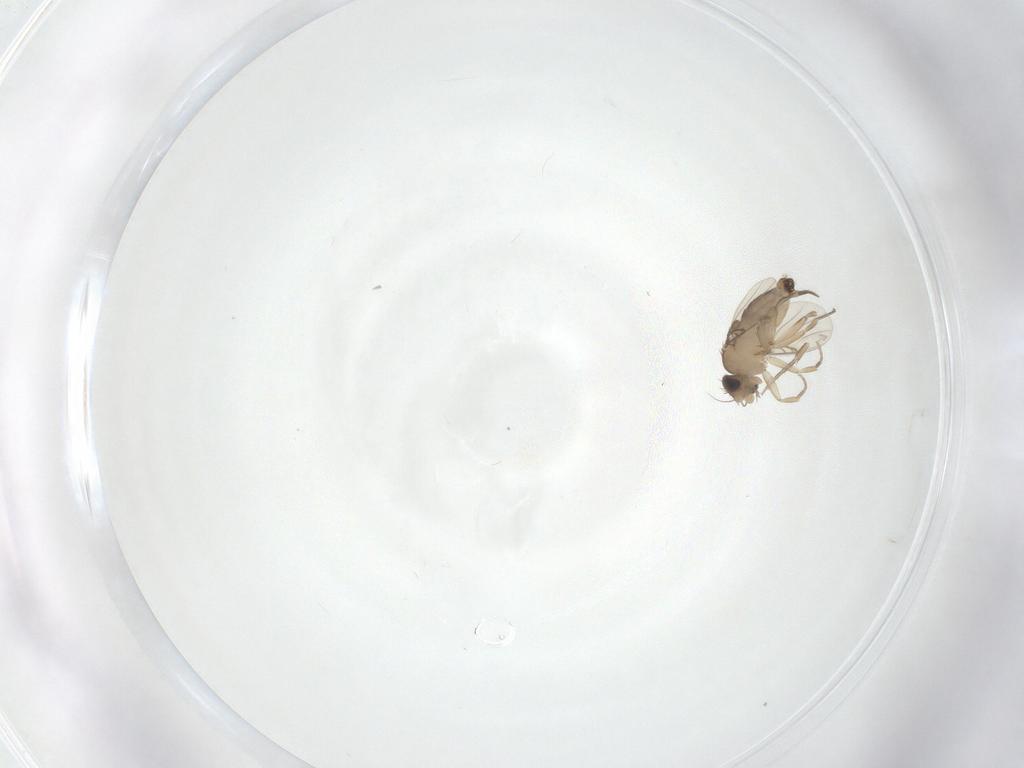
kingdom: Animalia
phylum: Arthropoda
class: Insecta
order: Diptera
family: Phoridae
